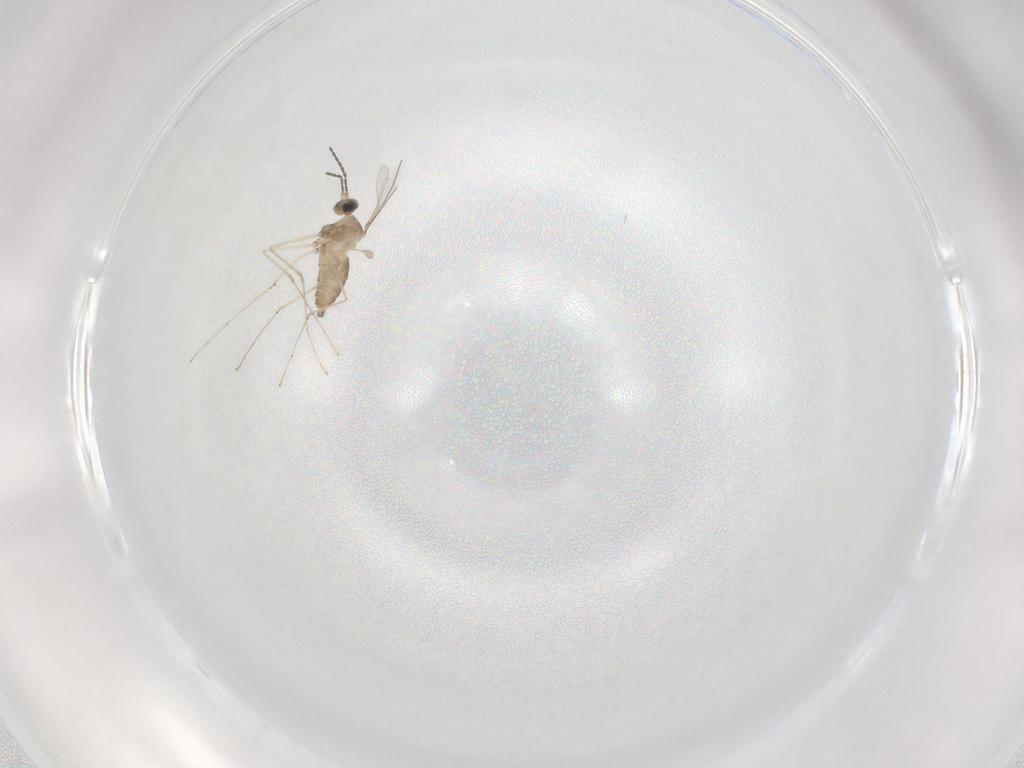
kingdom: Animalia
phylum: Arthropoda
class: Insecta
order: Diptera
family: Cecidomyiidae
